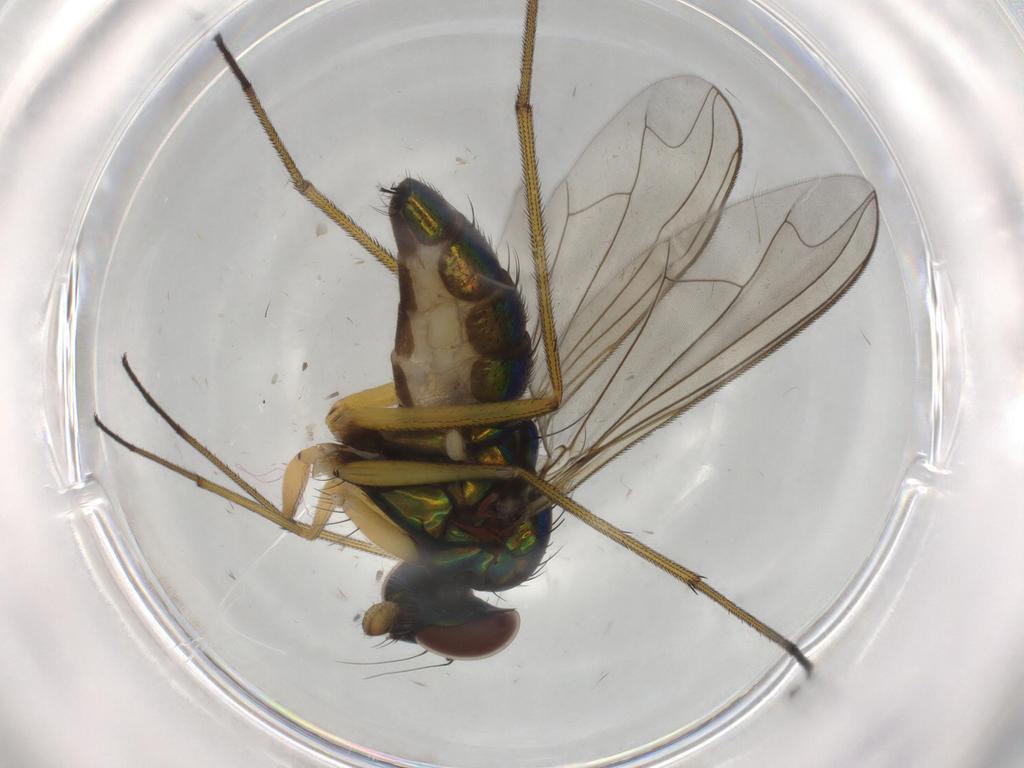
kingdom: Animalia
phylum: Arthropoda
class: Insecta
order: Diptera
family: Dolichopodidae
